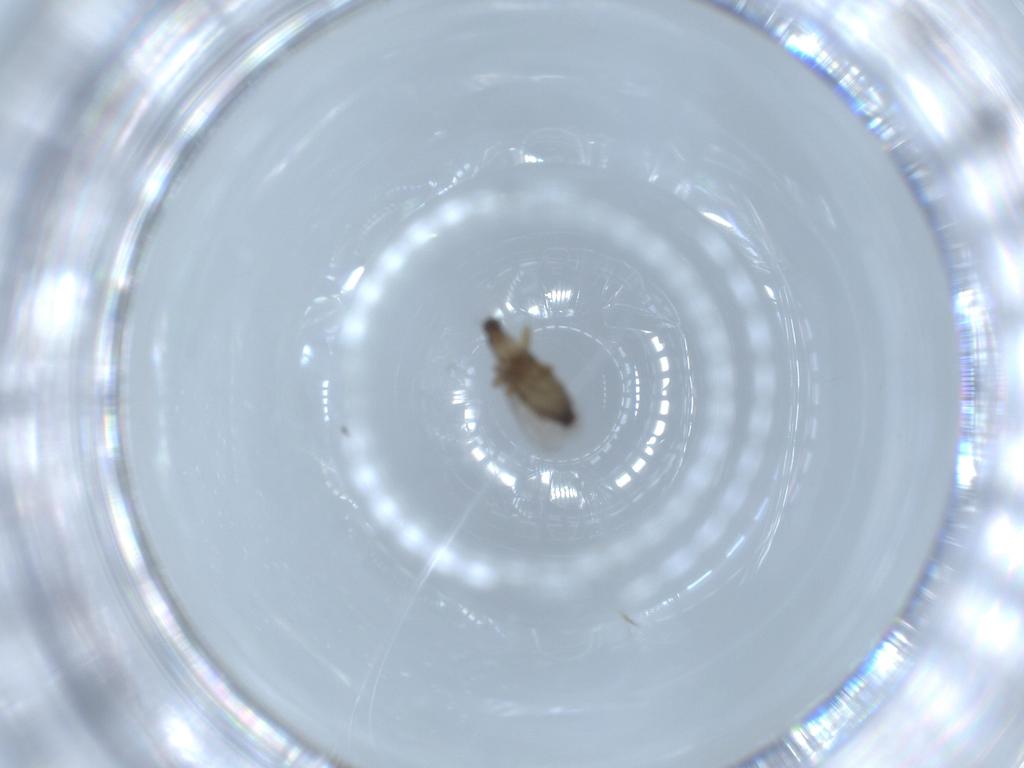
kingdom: Animalia
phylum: Arthropoda
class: Insecta
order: Diptera
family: Phoridae
